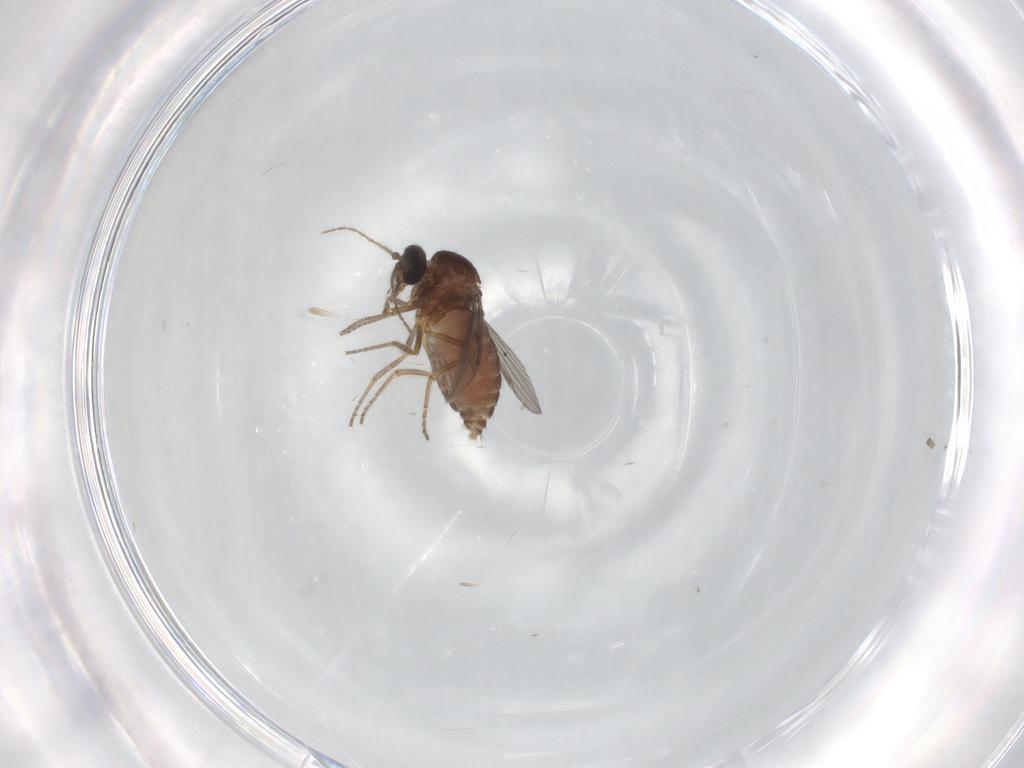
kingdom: Animalia
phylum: Arthropoda
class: Insecta
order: Diptera
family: Ceratopogonidae
